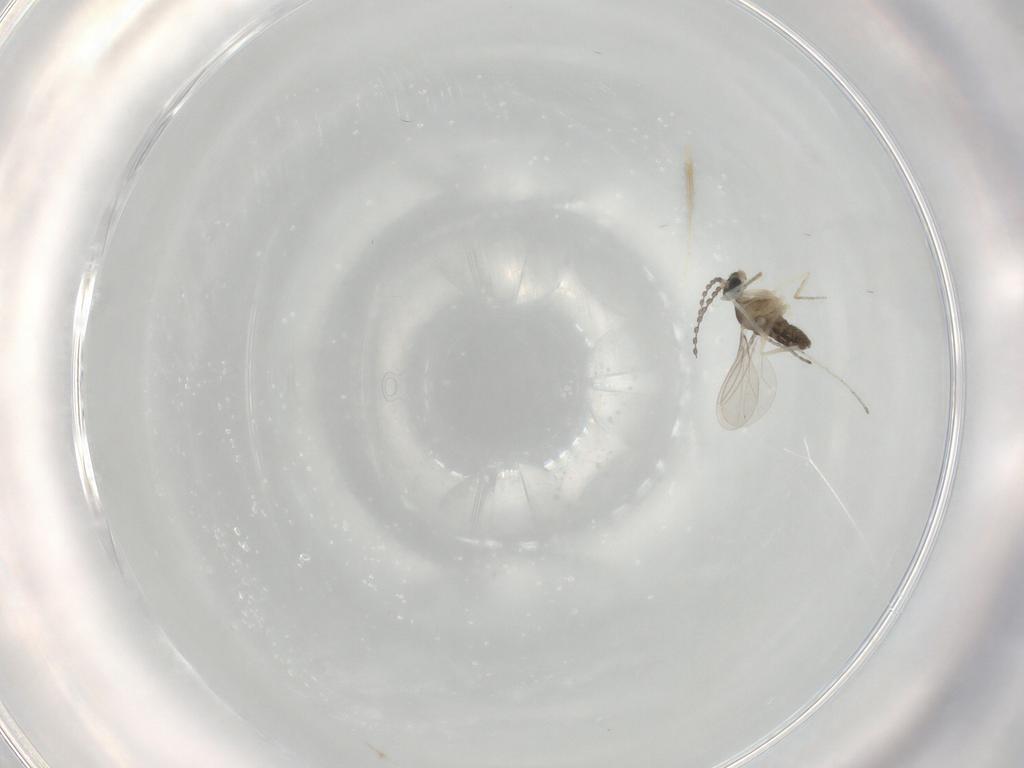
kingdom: Animalia
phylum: Arthropoda
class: Insecta
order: Diptera
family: Cecidomyiidae
